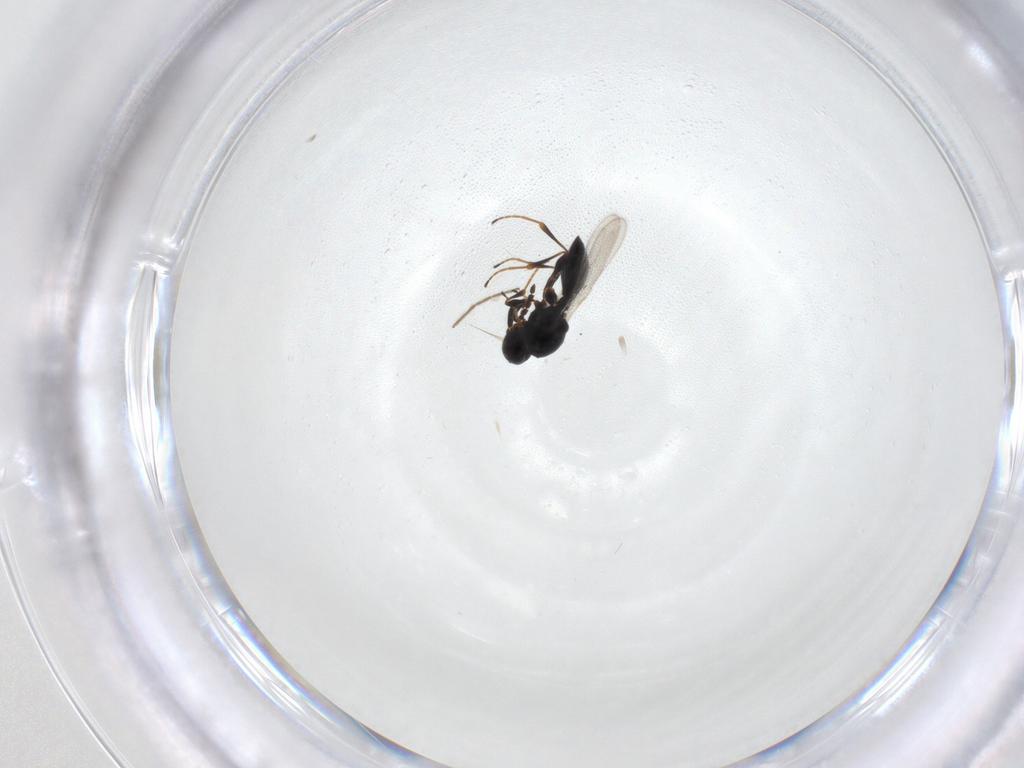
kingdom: Animalia
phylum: Arthropoda
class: Insecta
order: Hymenoptera
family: Platygastridae
